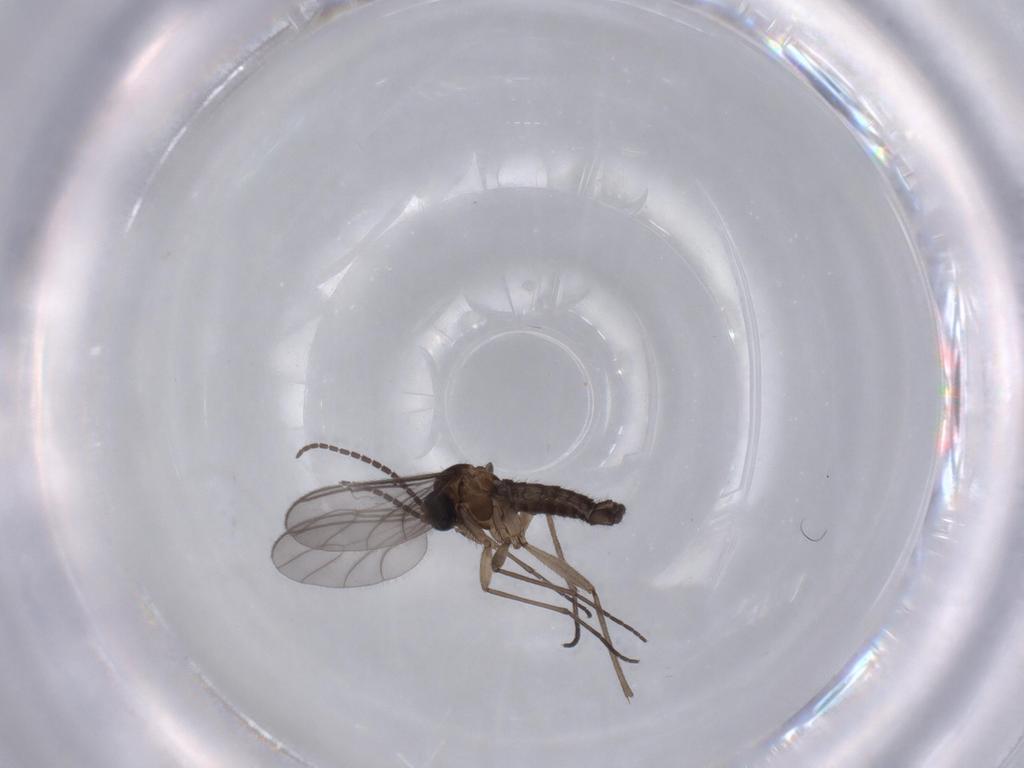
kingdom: Animalia
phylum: Arthropoda
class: Insecta
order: Diptera
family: Sciaridae
